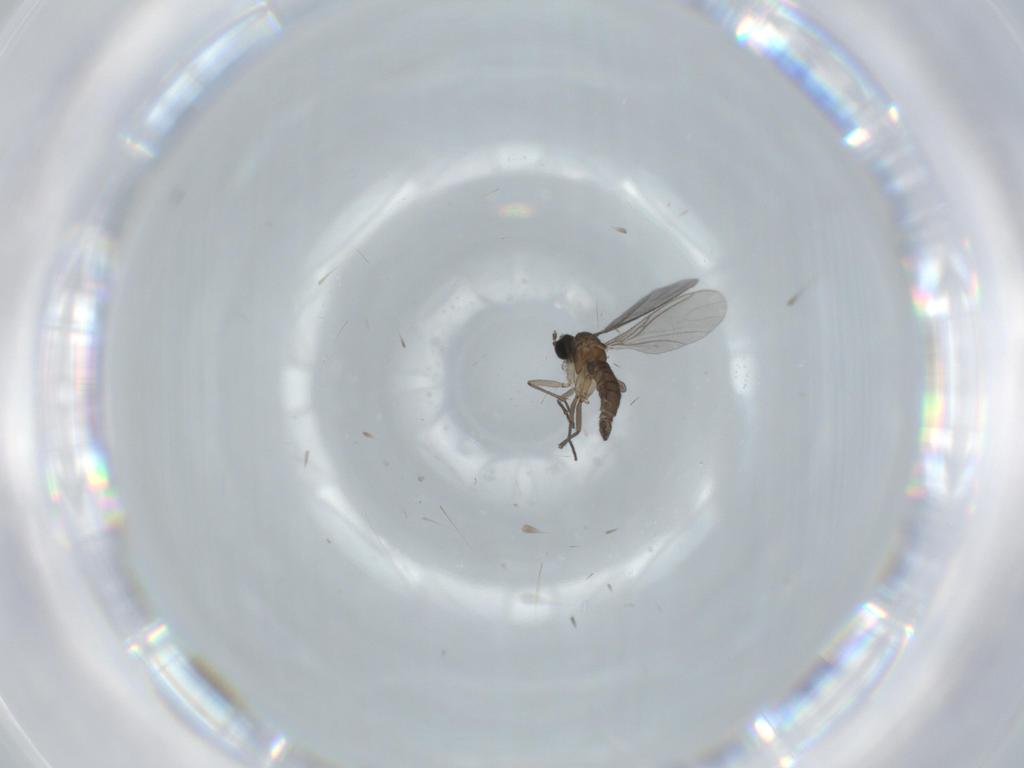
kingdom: Animalia
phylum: Arthropoda
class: Insecta
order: Diptera
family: Sciaridae
